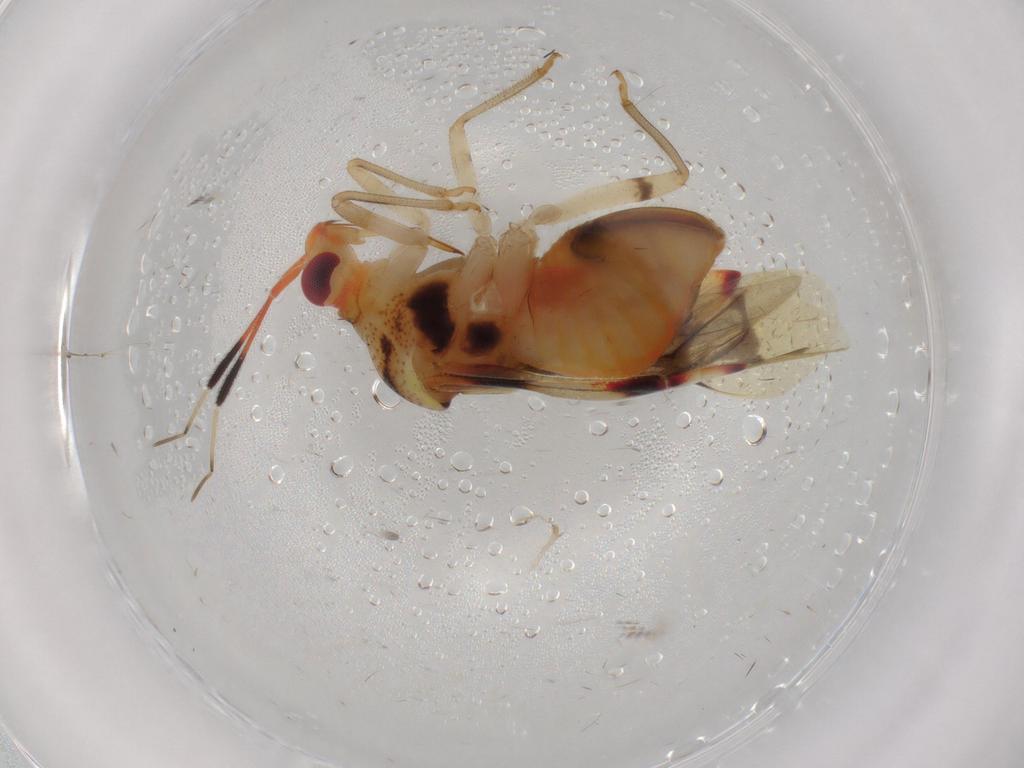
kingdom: Animalia
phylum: Arthropoda
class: Insecta
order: Hemiptera
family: Miridae
